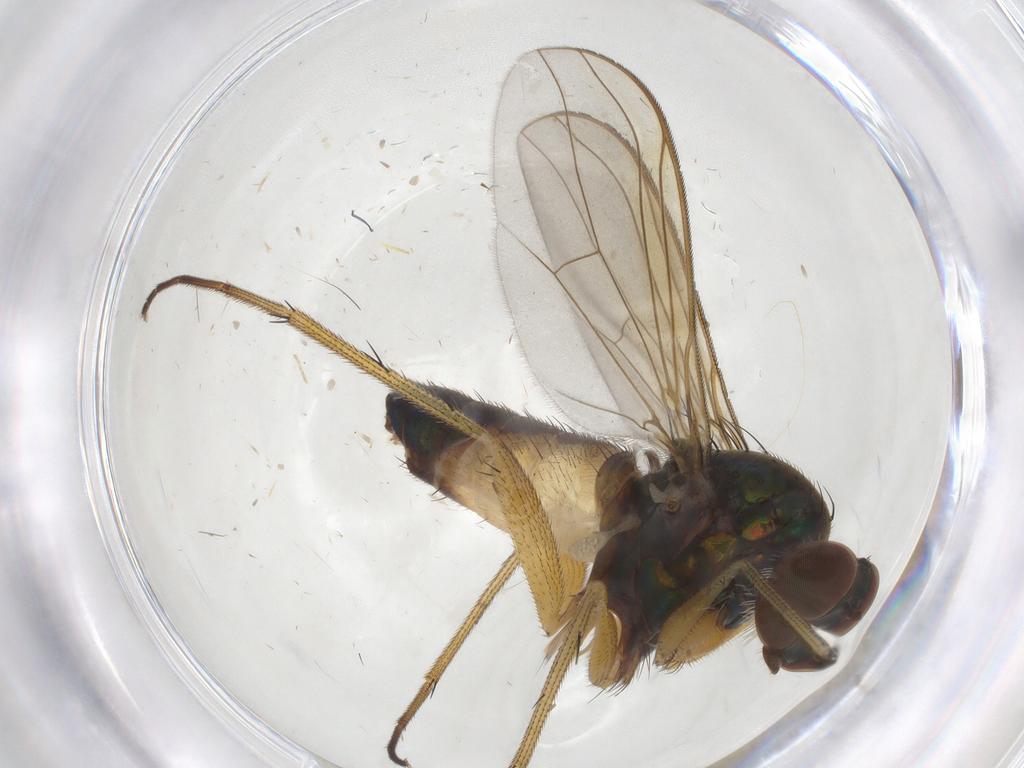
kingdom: Animalia
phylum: Arthropoda
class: Insecta
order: Diptera
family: Dolichopodidae
